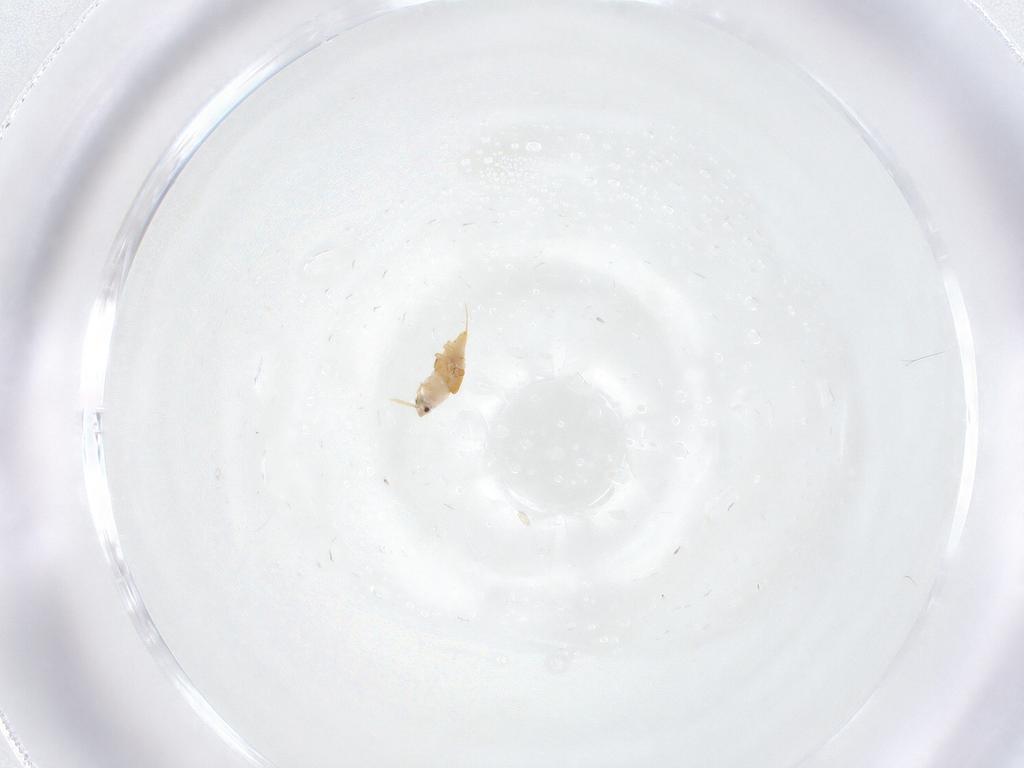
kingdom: Animalia
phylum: Arthropoda
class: Insecta
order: Diptera
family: Cecidomyiidae
